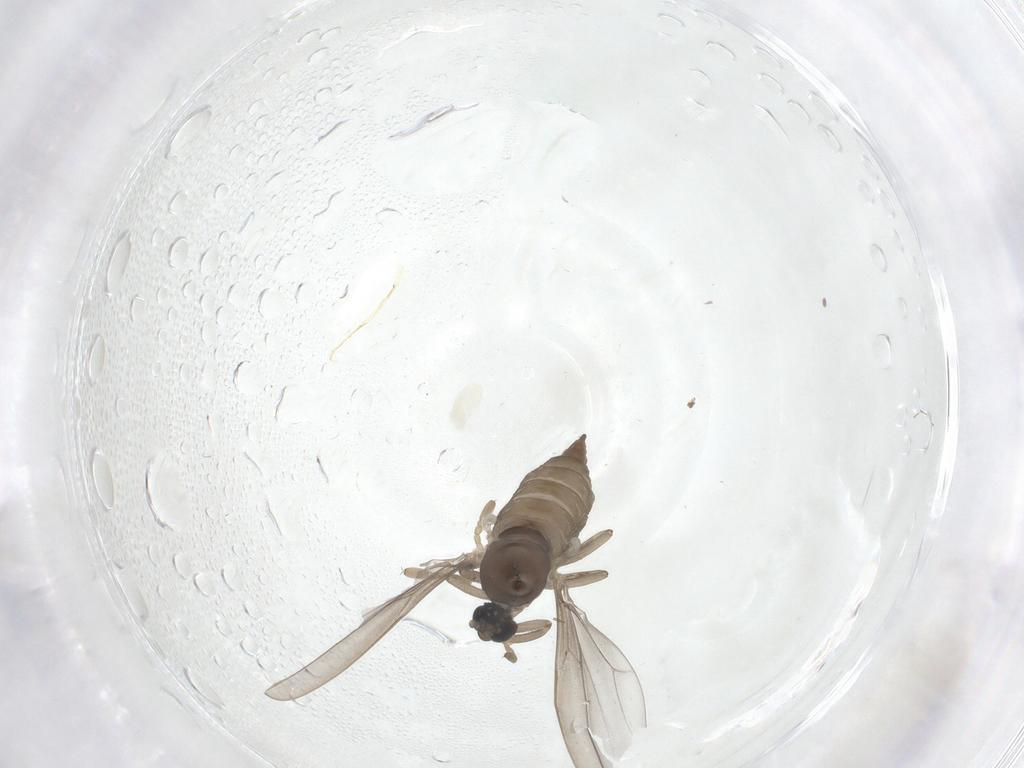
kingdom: Animalia
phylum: Arthropoda
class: Insecta
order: Diptera
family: Cecidomyiidae
